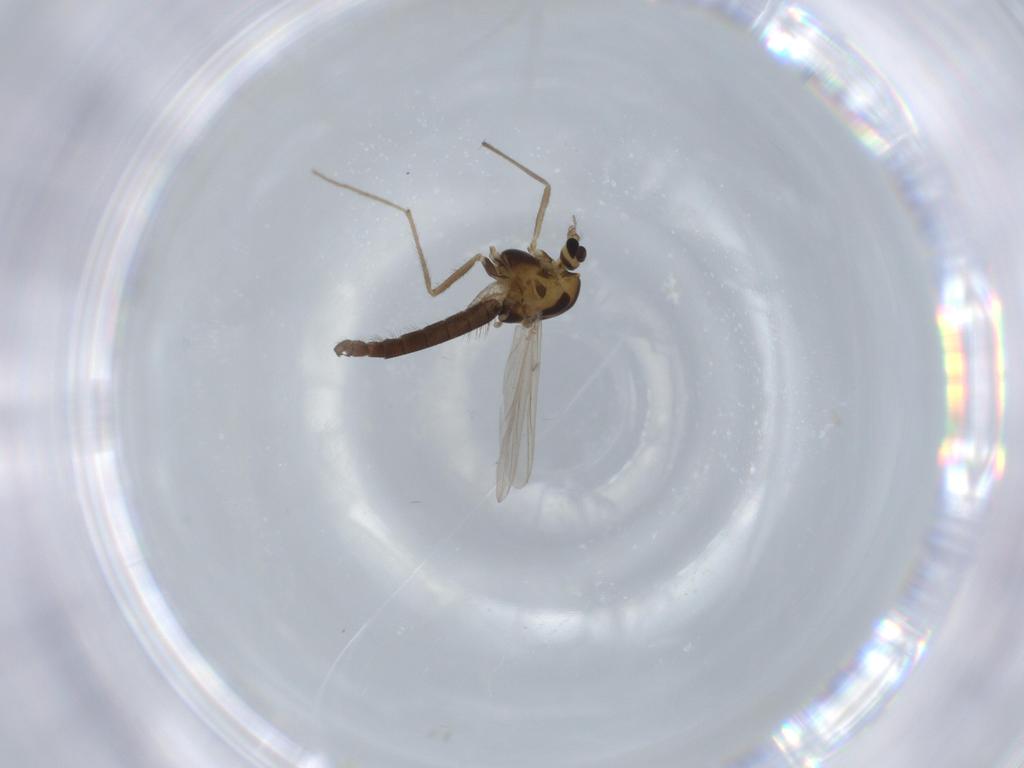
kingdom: Animalia
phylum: Arthropoda
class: Insecta
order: Diptera
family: Chironomidae
